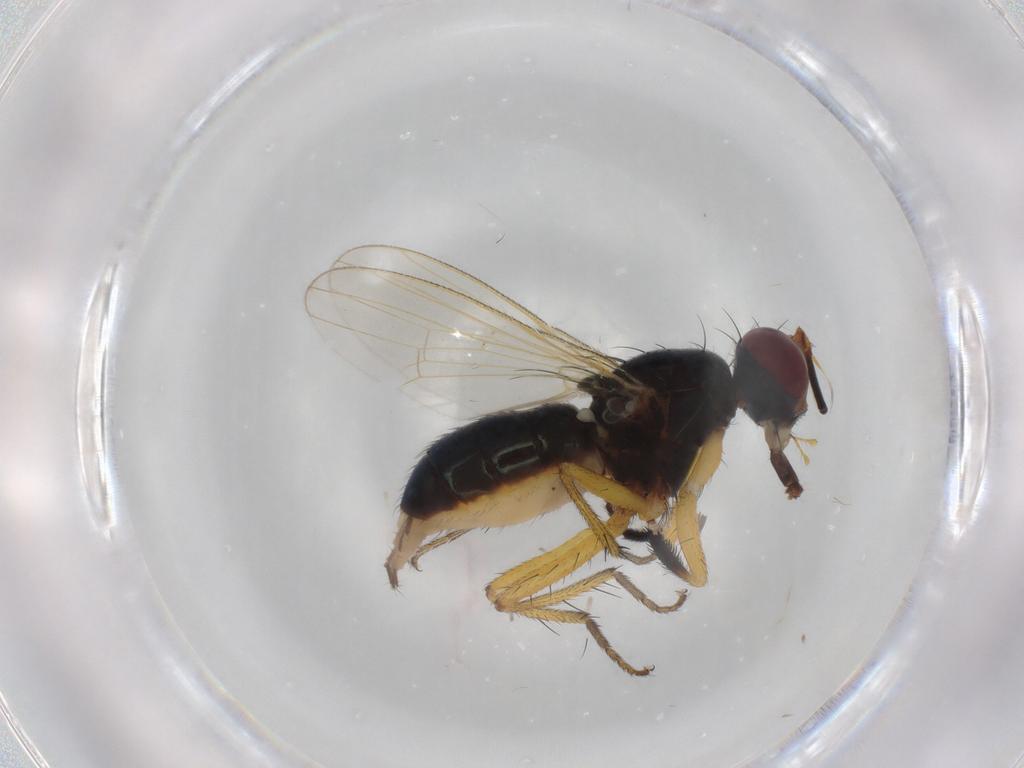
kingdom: Animalia
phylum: Arthropoda
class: Insecta
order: Diptera
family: Muscidae
